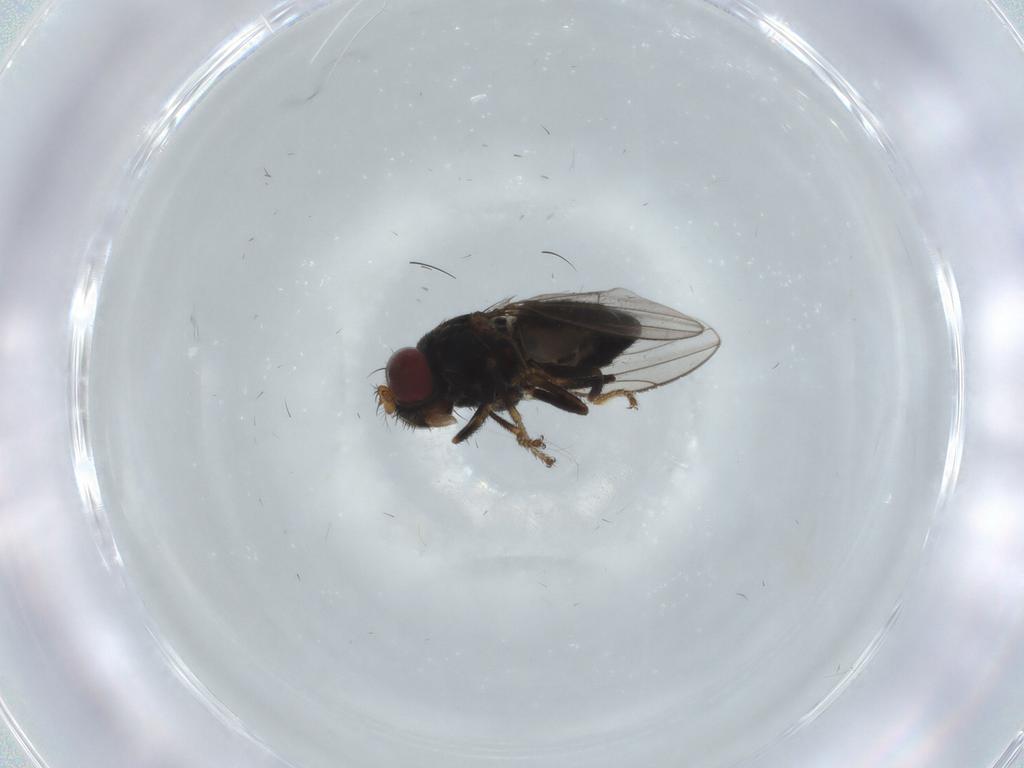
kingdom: Animalia
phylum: Arthropoda
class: Insecta
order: Diptera
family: Ephydridae
